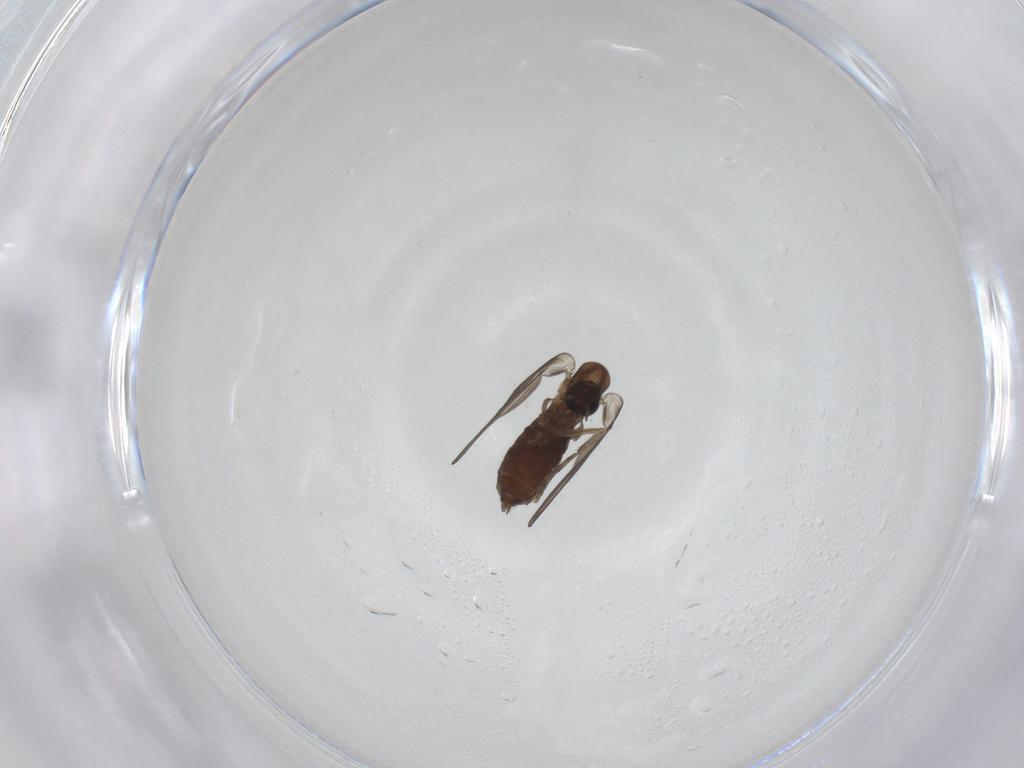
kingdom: Animalia
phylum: Arthropoda
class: Insecta
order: Diptera
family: Psychodidae
